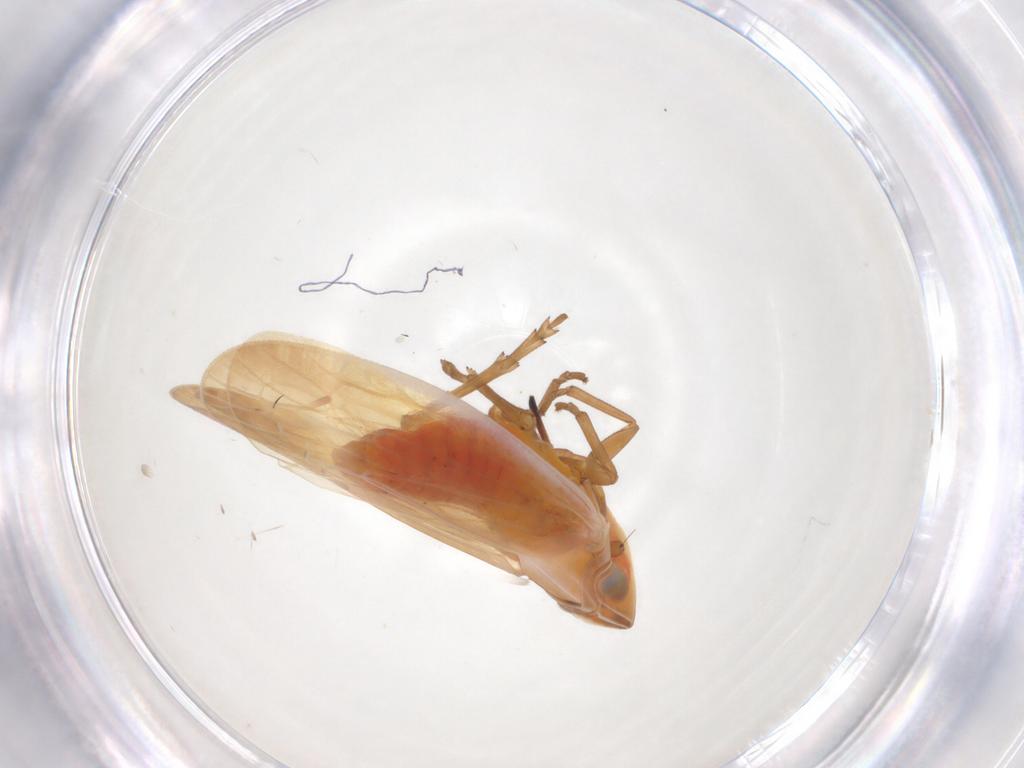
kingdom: Animalia
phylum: Arthropoda
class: Insecta
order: Hemiptera
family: Achilidae
